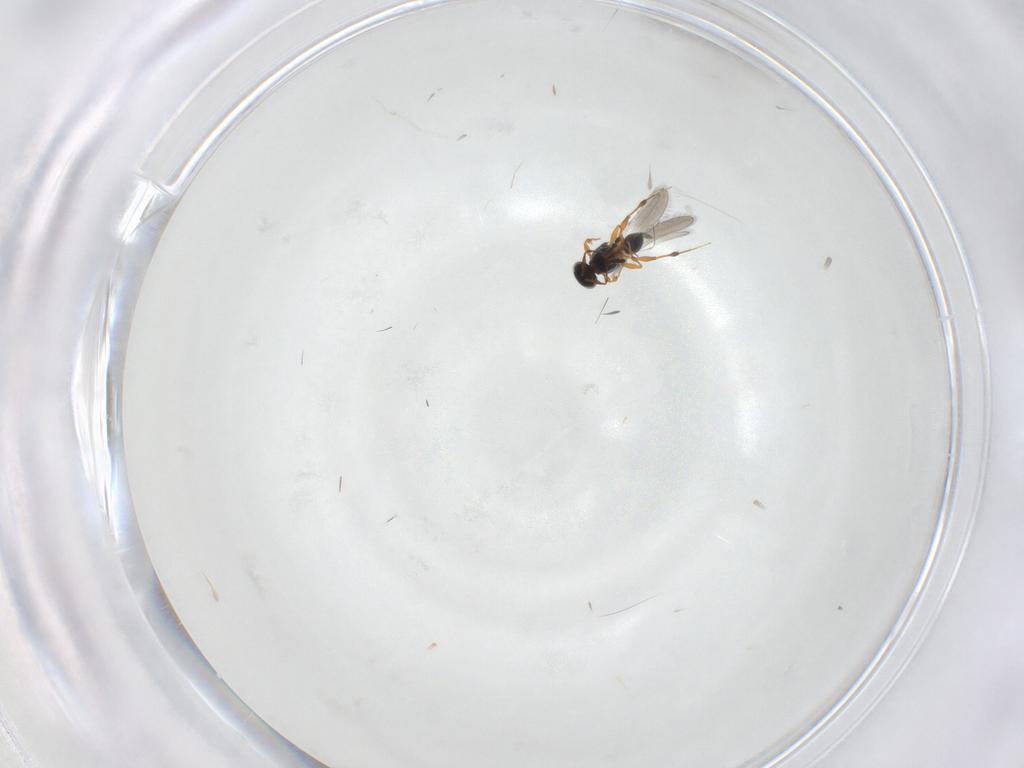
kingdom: Animalia
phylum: Arthropoda
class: Insecta
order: Hymenoptera
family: Platygastridae
